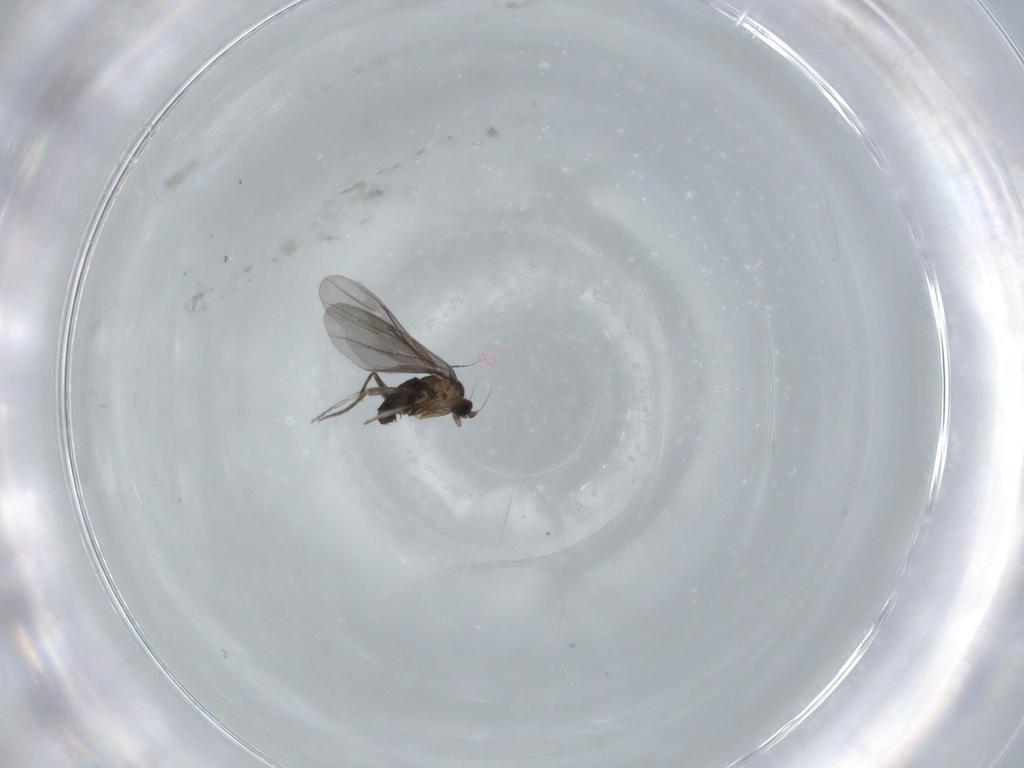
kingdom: Animalia
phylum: Arthropoda
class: Insecta
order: Diptera
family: Phoridae
